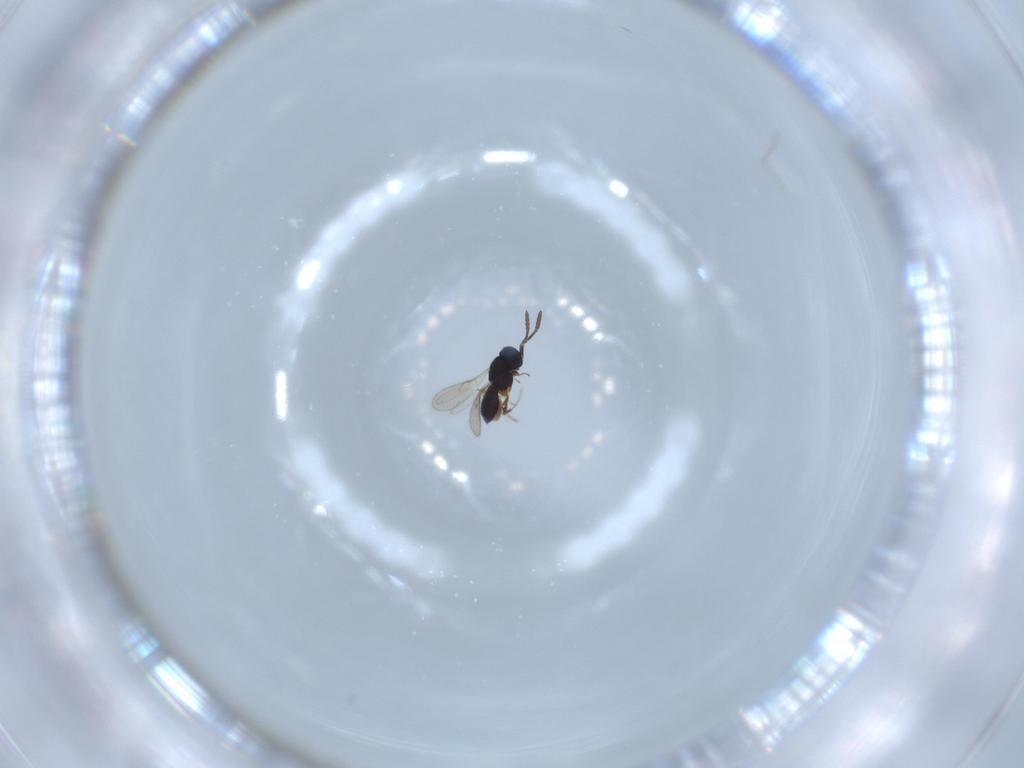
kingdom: Animalia
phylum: Arthropoda
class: Insecta
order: Hymenoptera
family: Scelionidae
